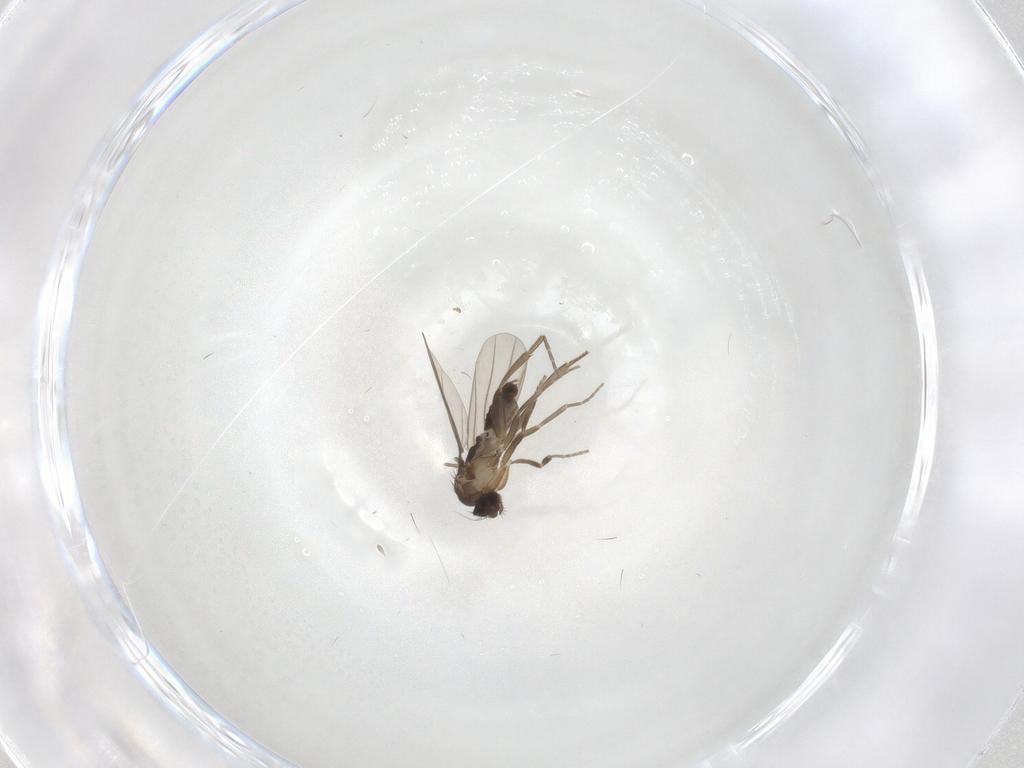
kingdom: Animalia
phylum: Arthropoda
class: Insecta
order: Diptera
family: Phoridae
